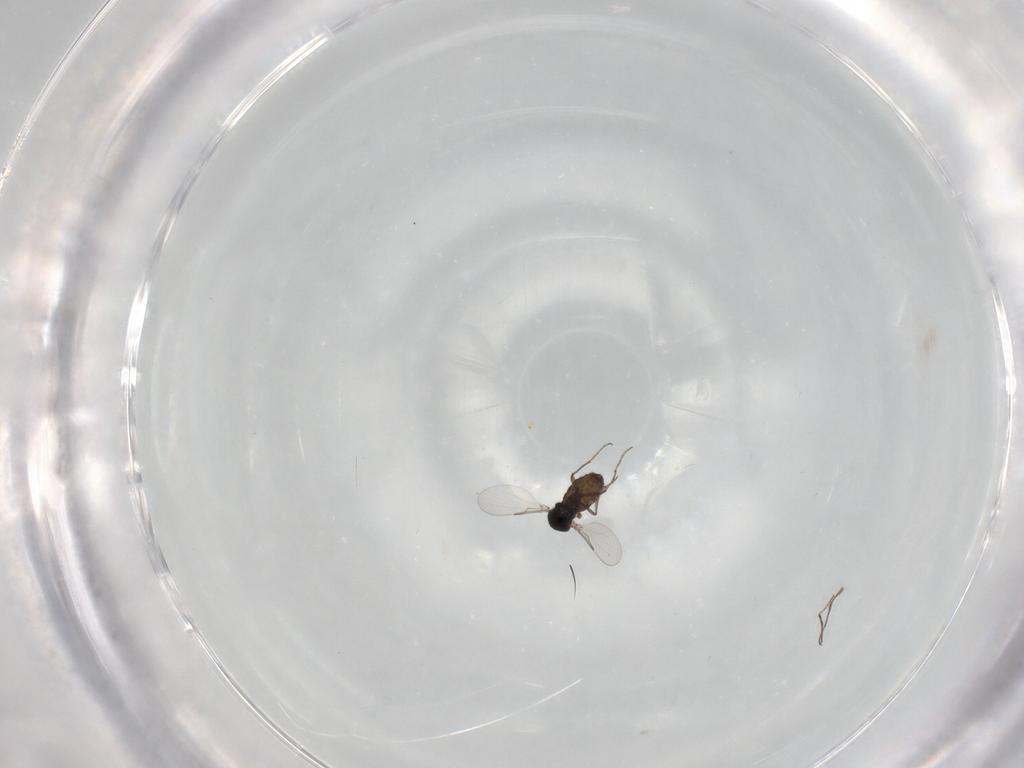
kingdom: Animalia
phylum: Arthropoda
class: Insecta
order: Diptera
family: Ceratopogonidae
